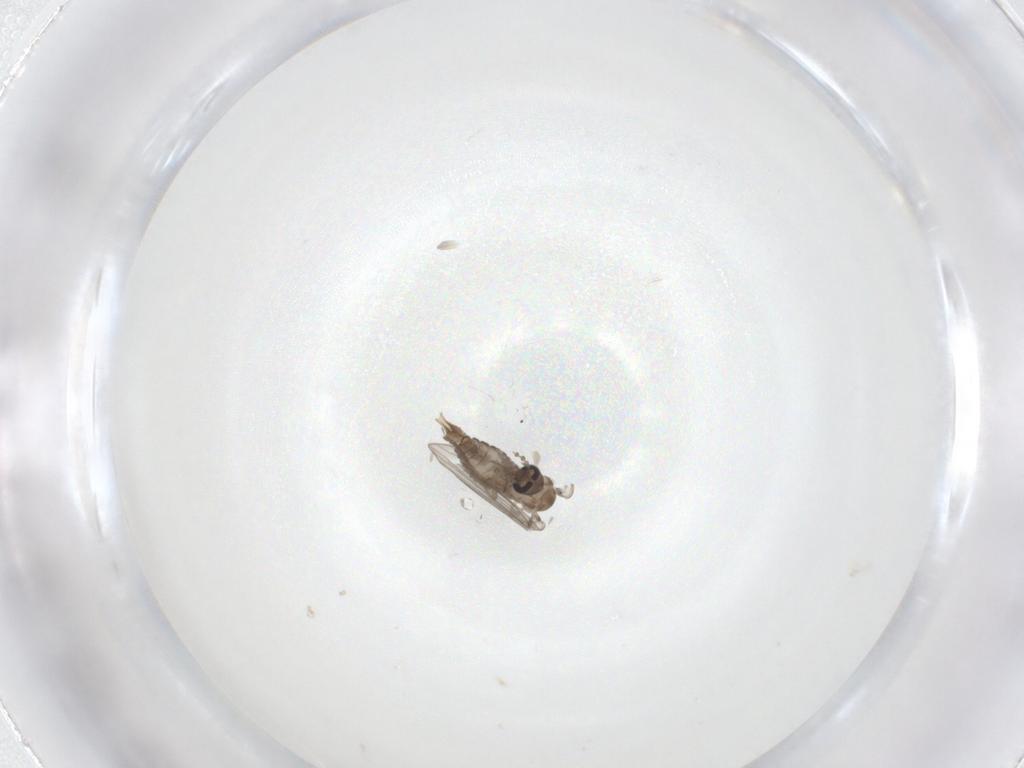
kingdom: Animalia
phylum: Arthropoda
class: Insecta
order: Diptera
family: Psychodidae
